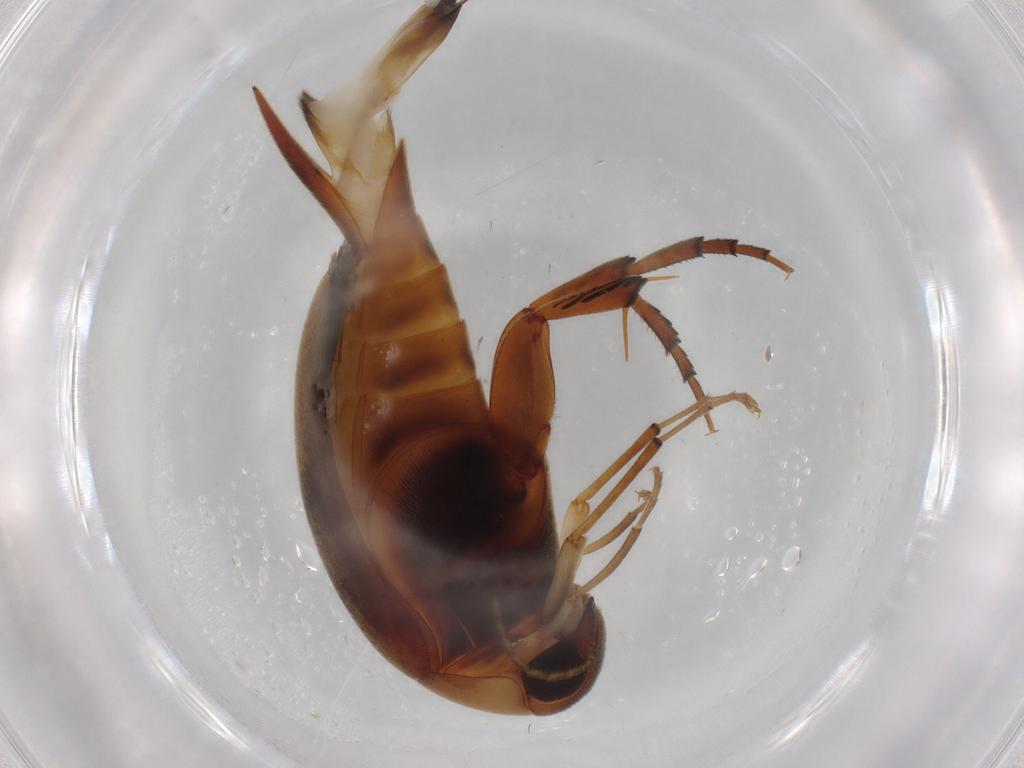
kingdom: Animalia
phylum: Arthropoda
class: Insecta
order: Coleoptera
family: Mordellidae
